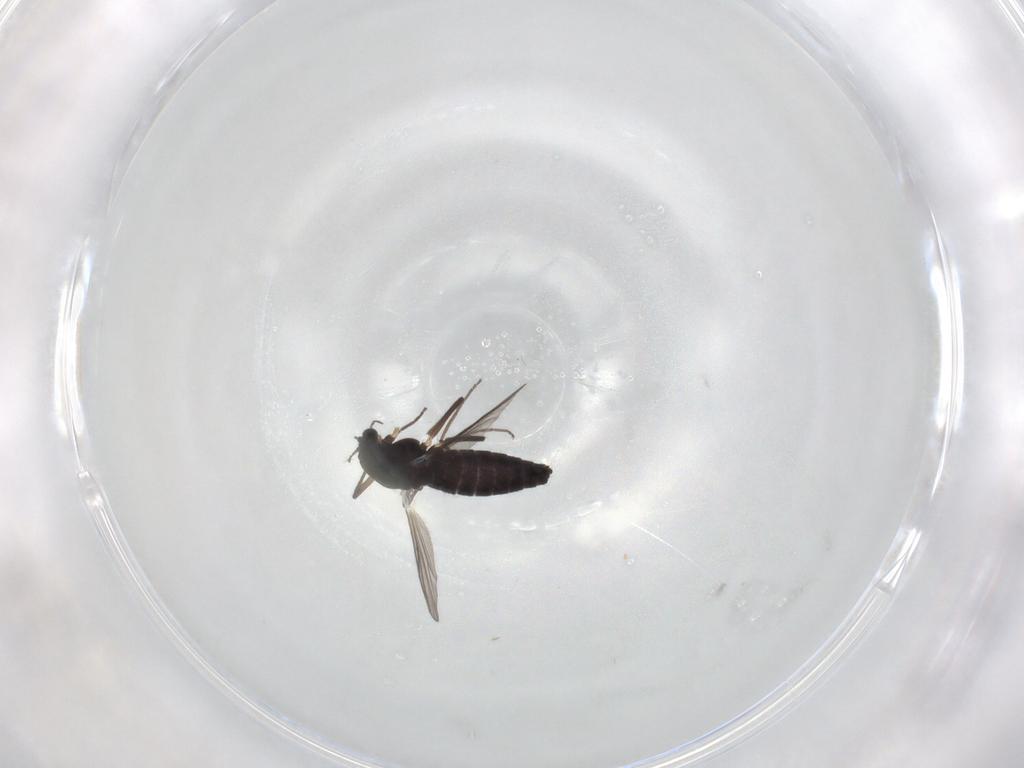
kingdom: Animalia
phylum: Arthropoda
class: Insecta
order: Diptera
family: Chironomidae
